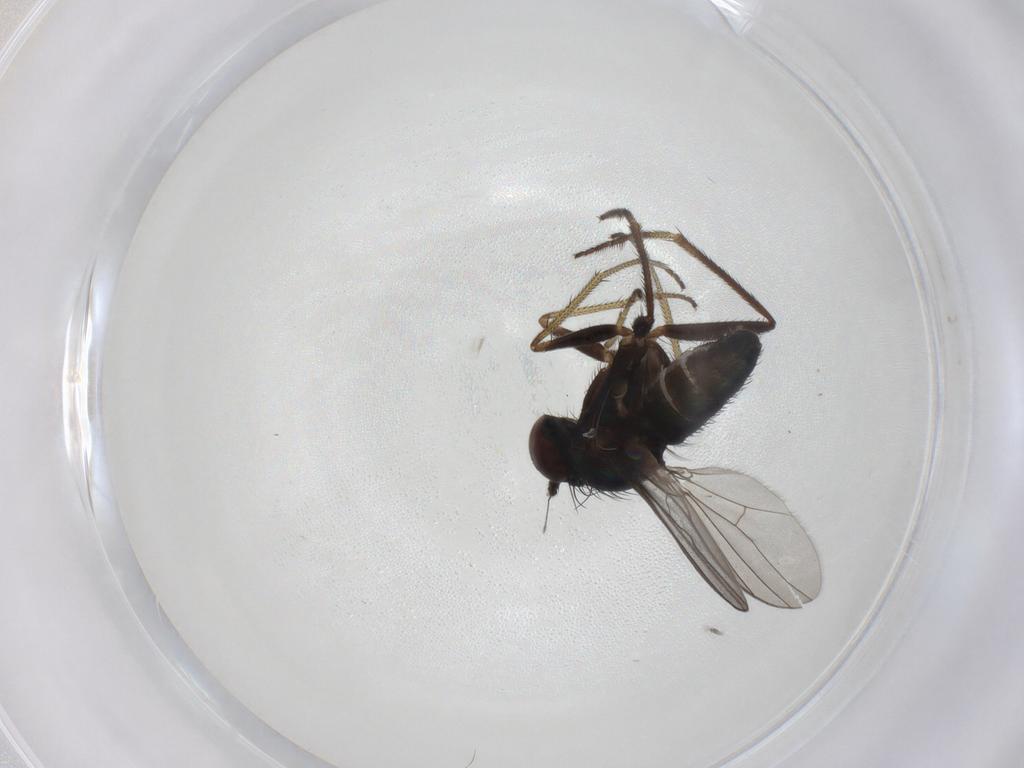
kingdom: Animalia
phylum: Arthropoda
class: Insecta
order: Diptera
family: Dolichopodidae
